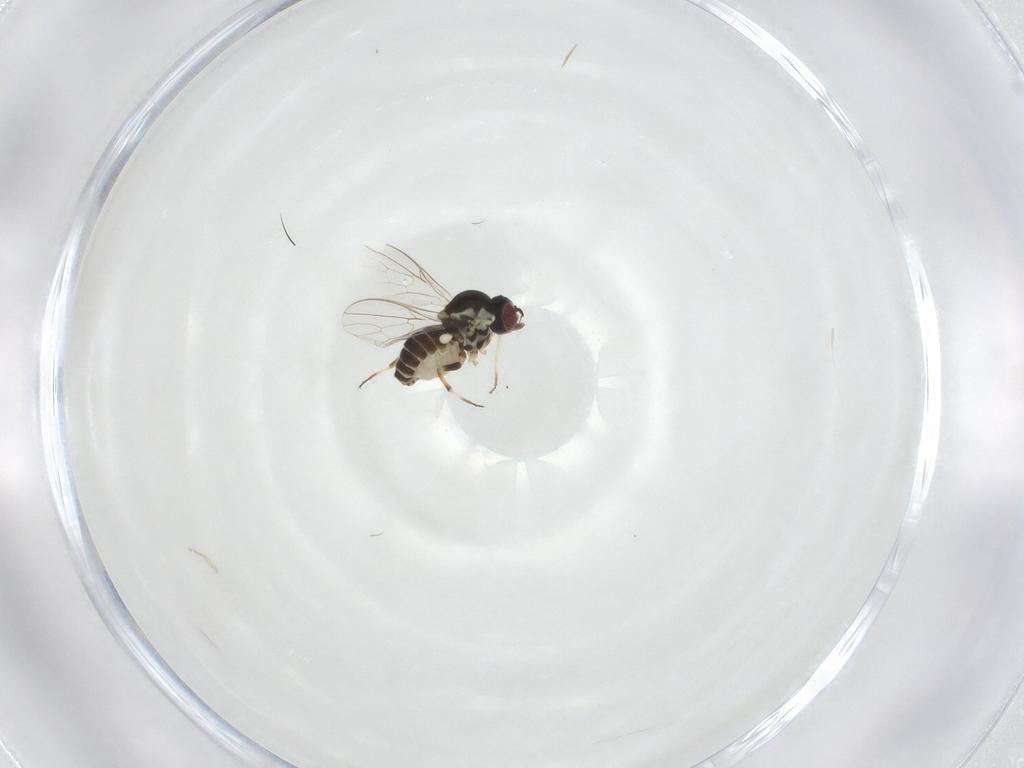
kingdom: Animalia
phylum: Arthropoda
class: Insecta
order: Diptera
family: Mythicomyiidae
